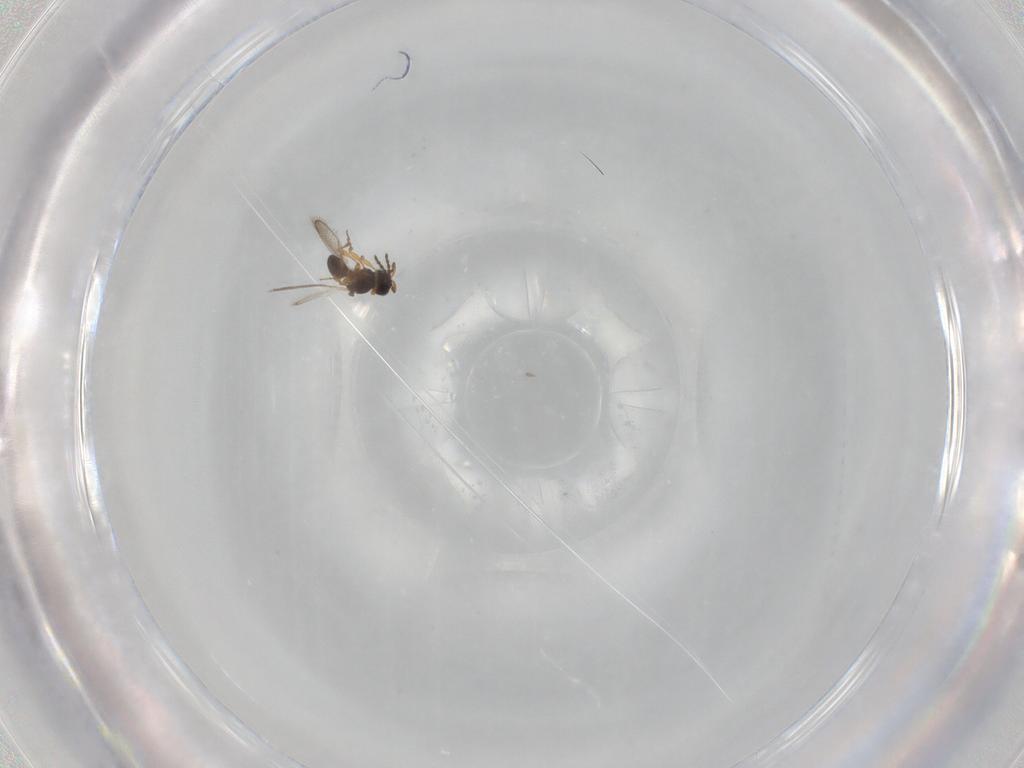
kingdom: Animalia
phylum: Arthropoda
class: Insecta
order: Hymenoptera
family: Platygastridae
